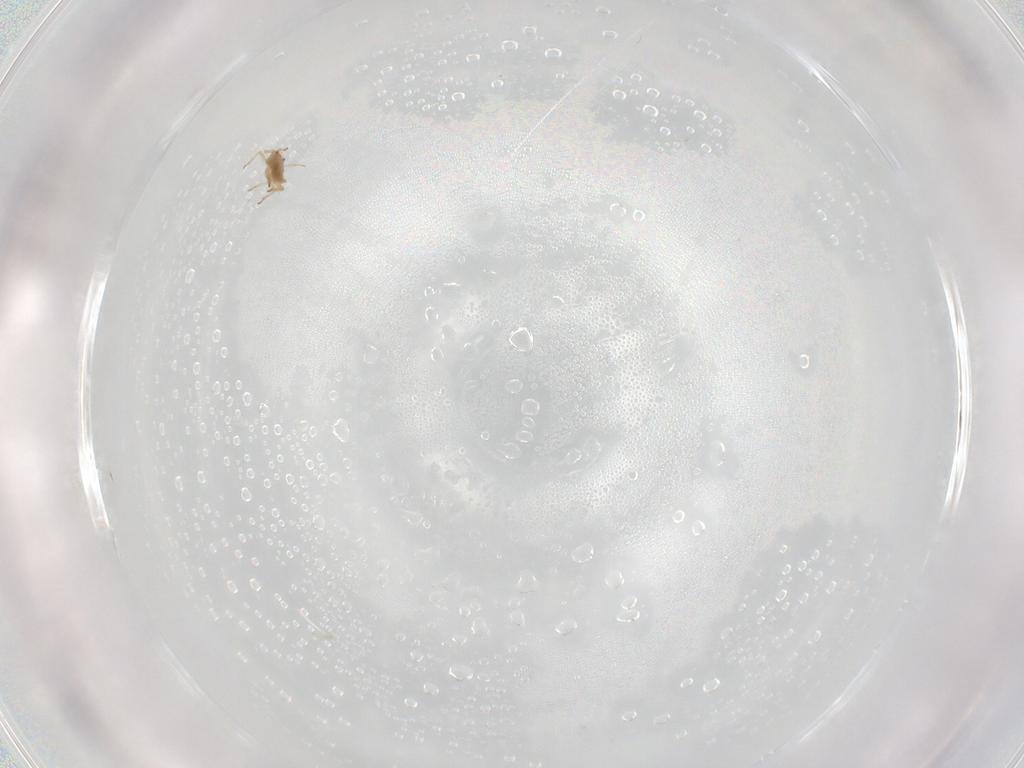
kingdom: Animalia
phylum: Arthropoda
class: Insecta
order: Hemiptera
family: Aphididae
